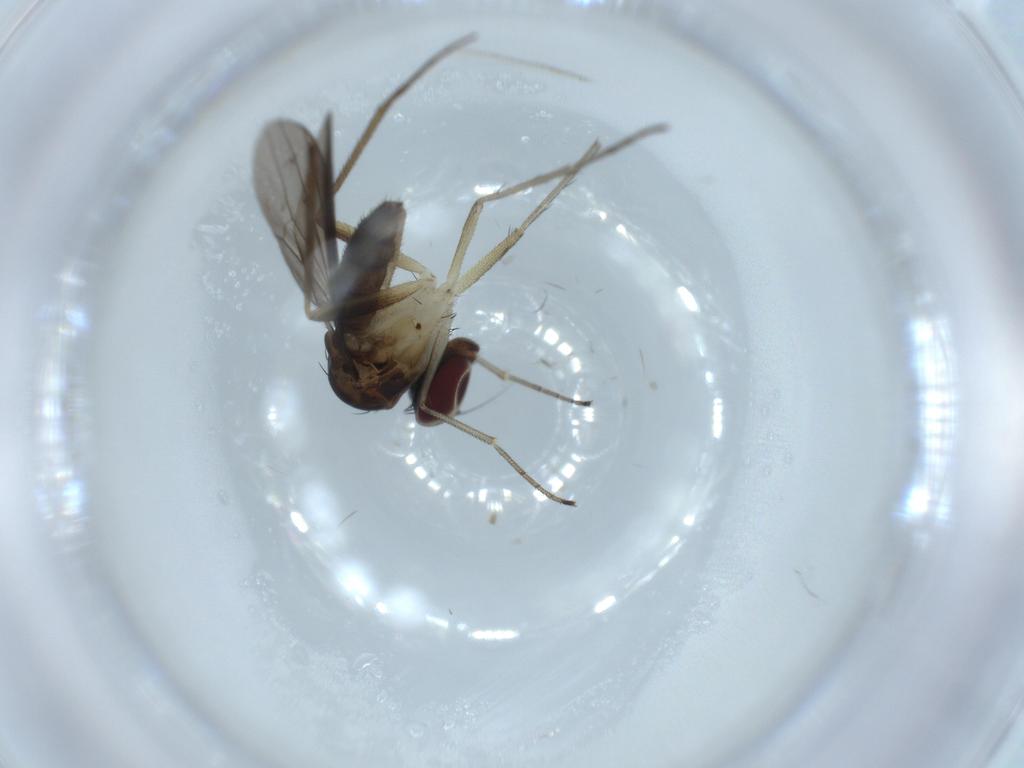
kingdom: Animalia
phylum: Arthropoda
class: Insecta
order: Diptera
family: Dolichopodidae
